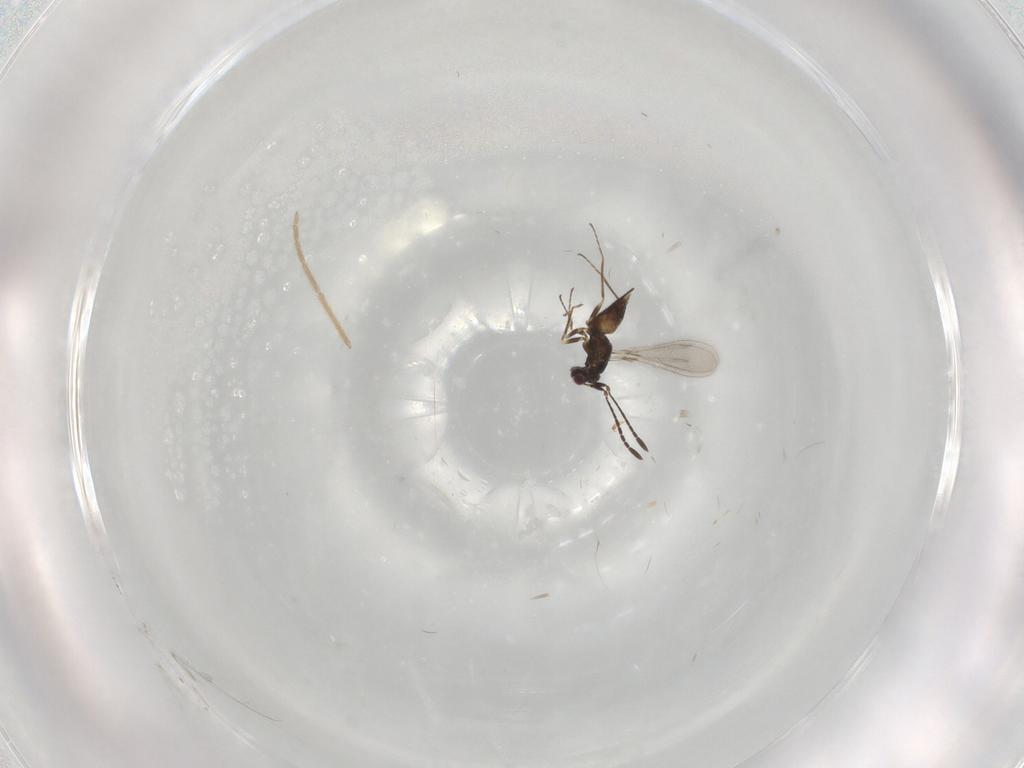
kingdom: Animalia
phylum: Arthropoda
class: Insecta
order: Hymenoptera
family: Mymaridae
